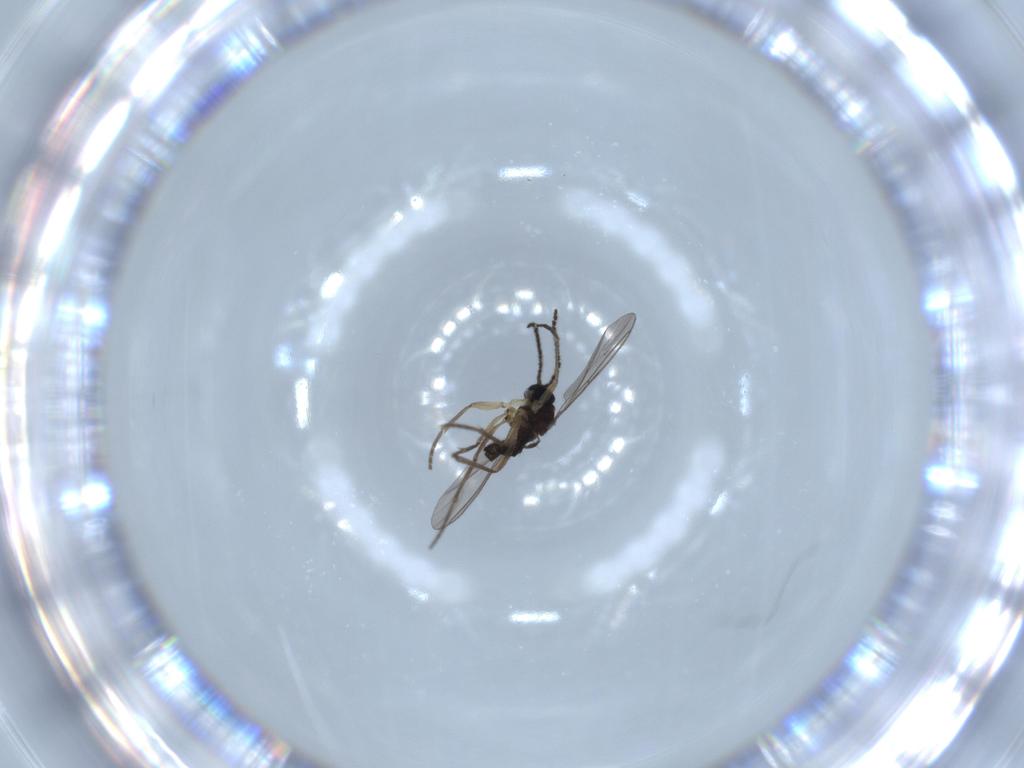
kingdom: Animalia
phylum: Arthropoda
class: Insecta
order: Diptera
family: Sciaridae
